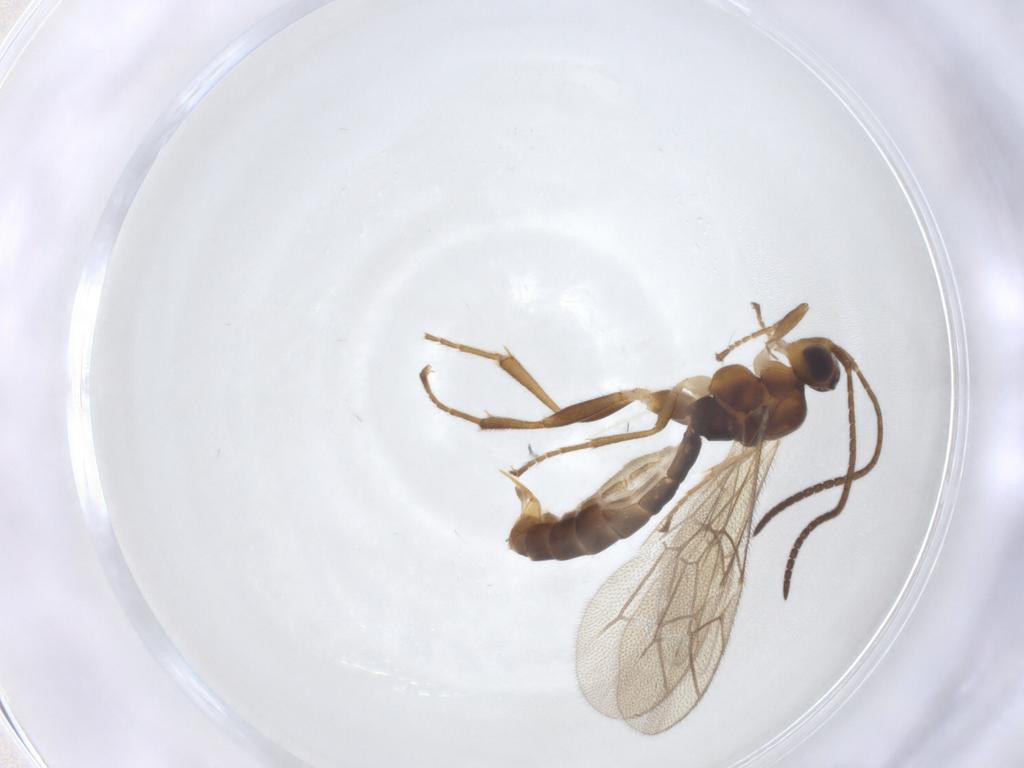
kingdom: Animalia
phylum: Arthropoda
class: Insecta
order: Hymenoptera
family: Ichneumonidae
